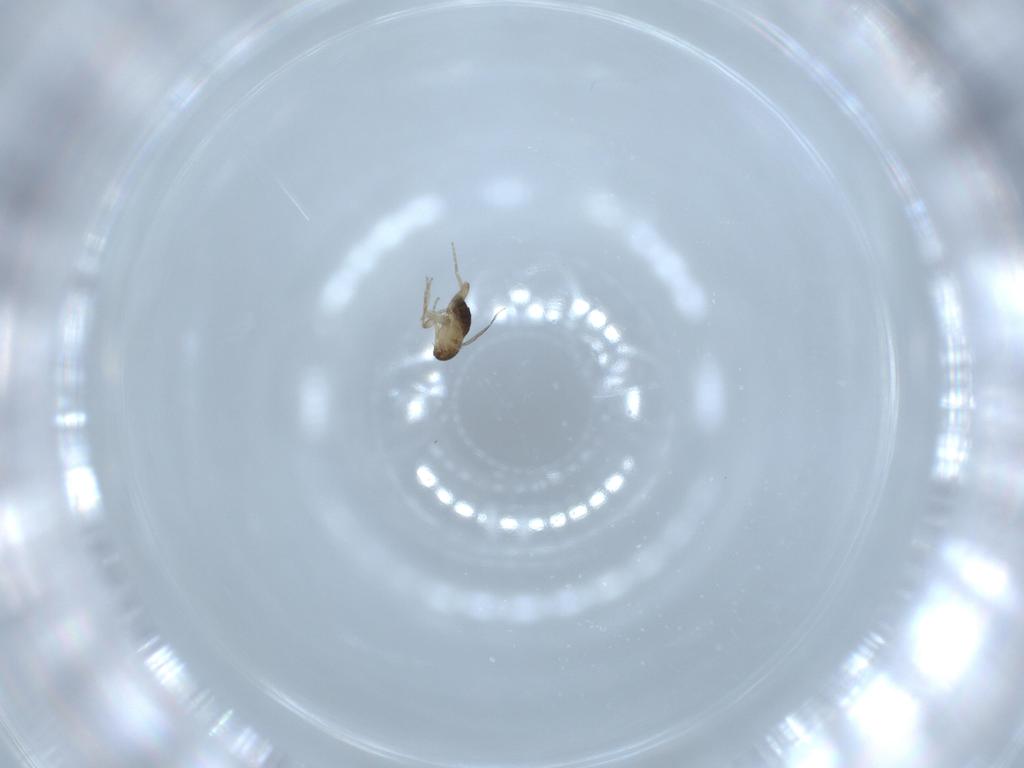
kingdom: Animalia
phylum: Arthropoda
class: Insecta
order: Diptera
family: Phoridae
